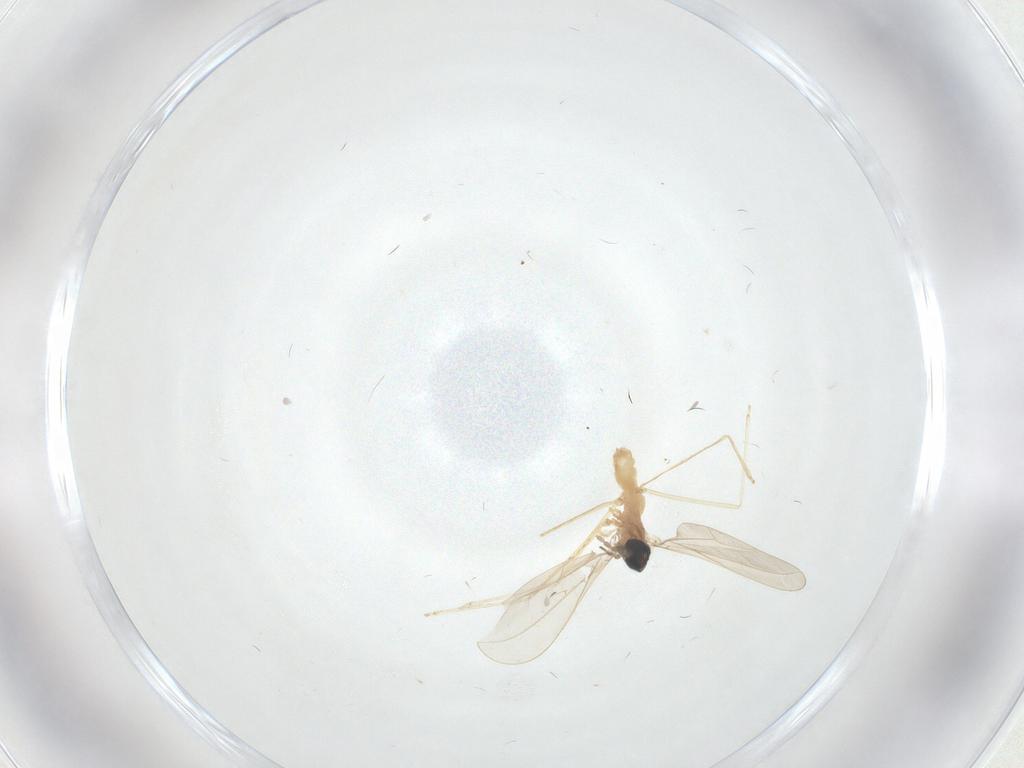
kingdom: Animalia
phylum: Arthropoda
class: Insecta
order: Diptera
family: Phoridae
